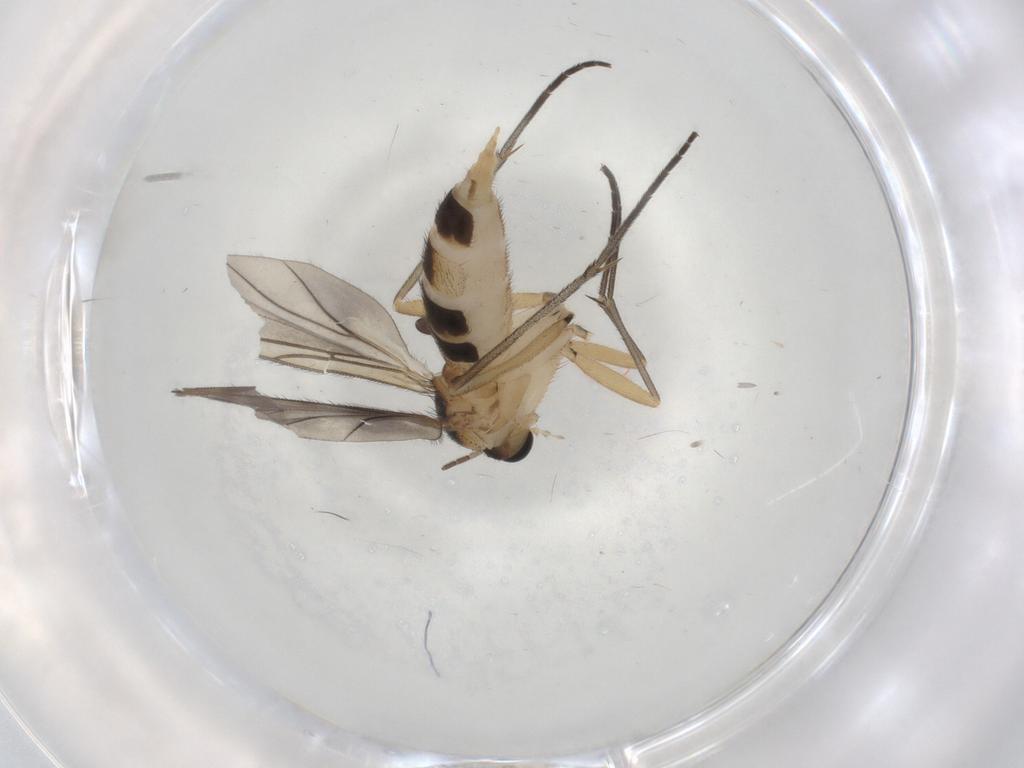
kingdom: Animalia
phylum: Arthropoda
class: Insecta
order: Diptera
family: Sciaridae
